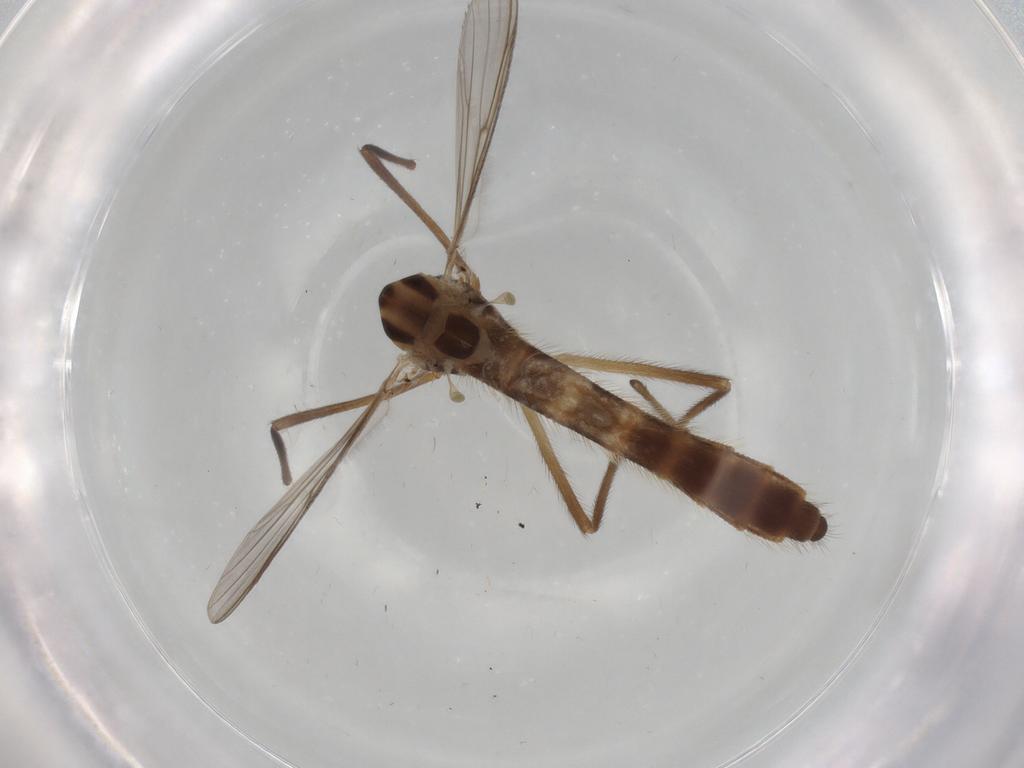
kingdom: Animalia
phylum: Arthropoda
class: Insecta
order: Diptera
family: Chironomidae
